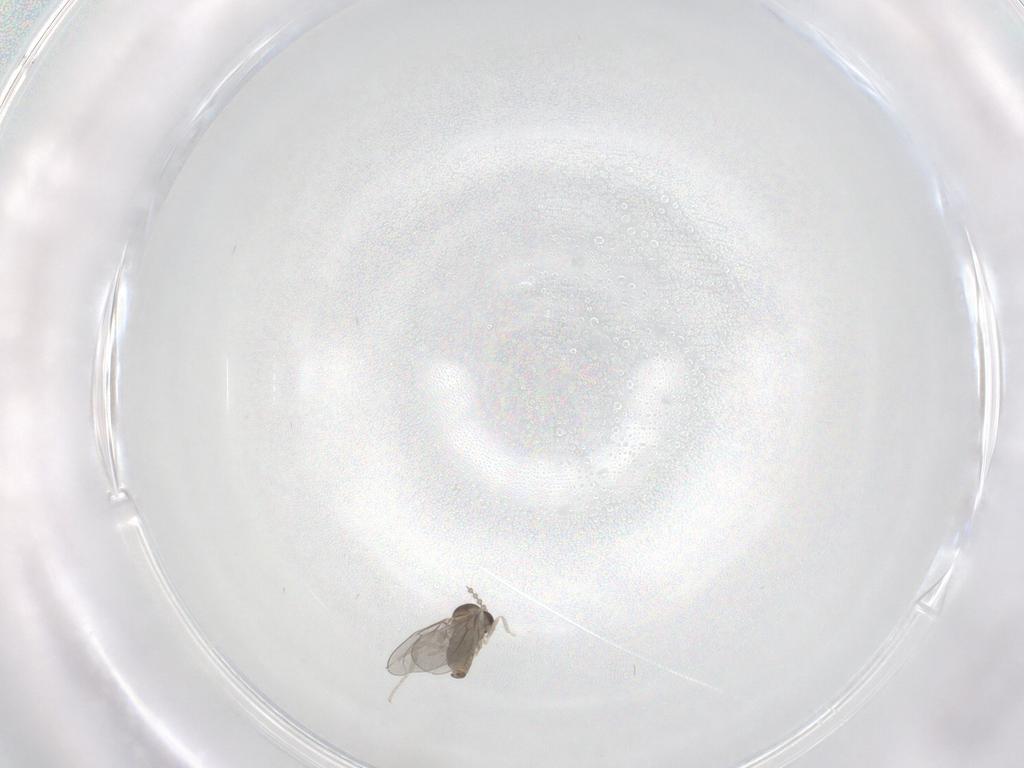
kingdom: Animalia
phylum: Arthropoda
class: Insecta
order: Diptera
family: Cecidomyiidae
